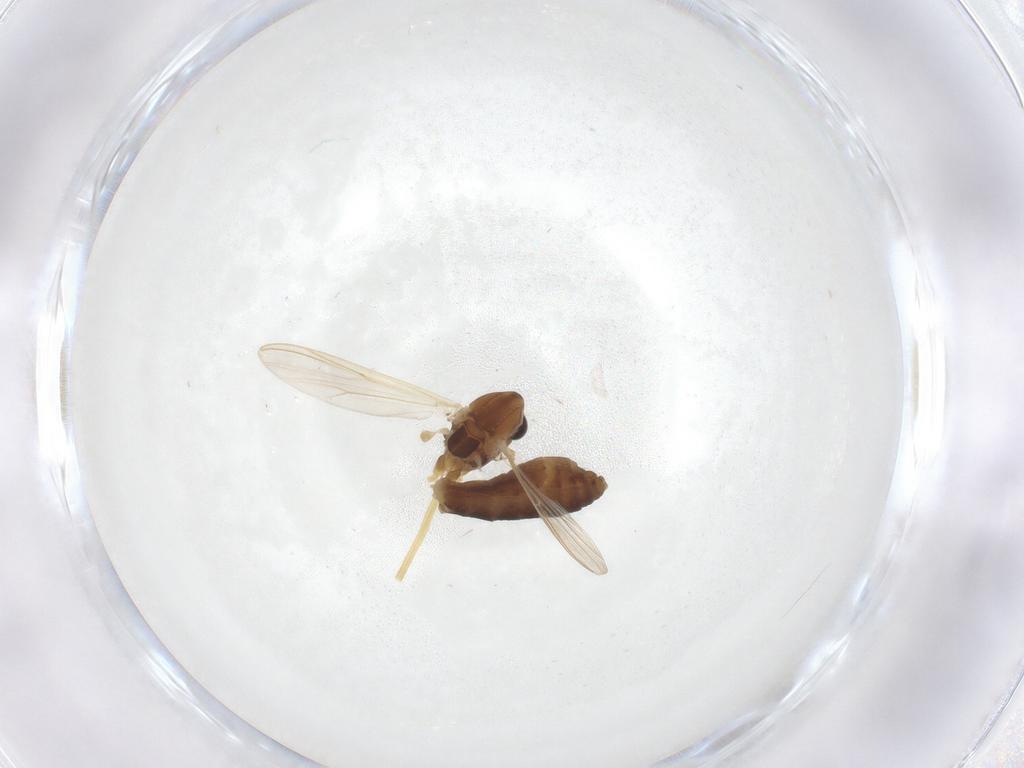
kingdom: Animalia
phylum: Arthropoda
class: Insecta
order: Diptera
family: Chironomidae
